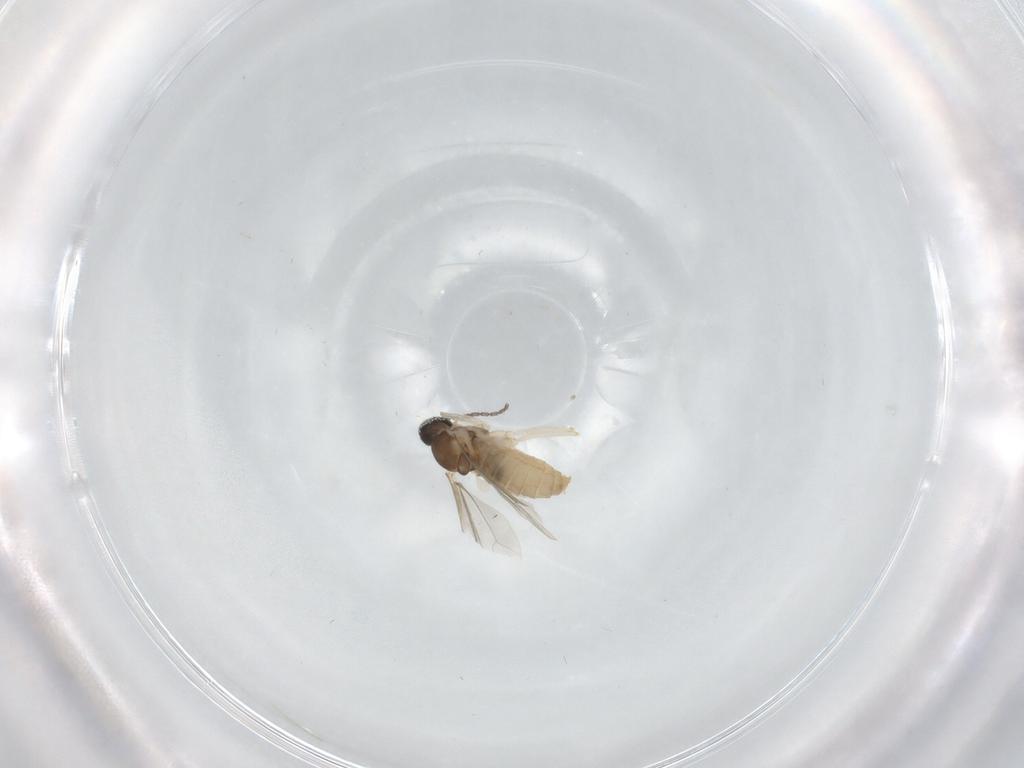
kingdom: Animalia
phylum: Arthropoda
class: Insecta
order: Diptera
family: Cecidomyiidae
